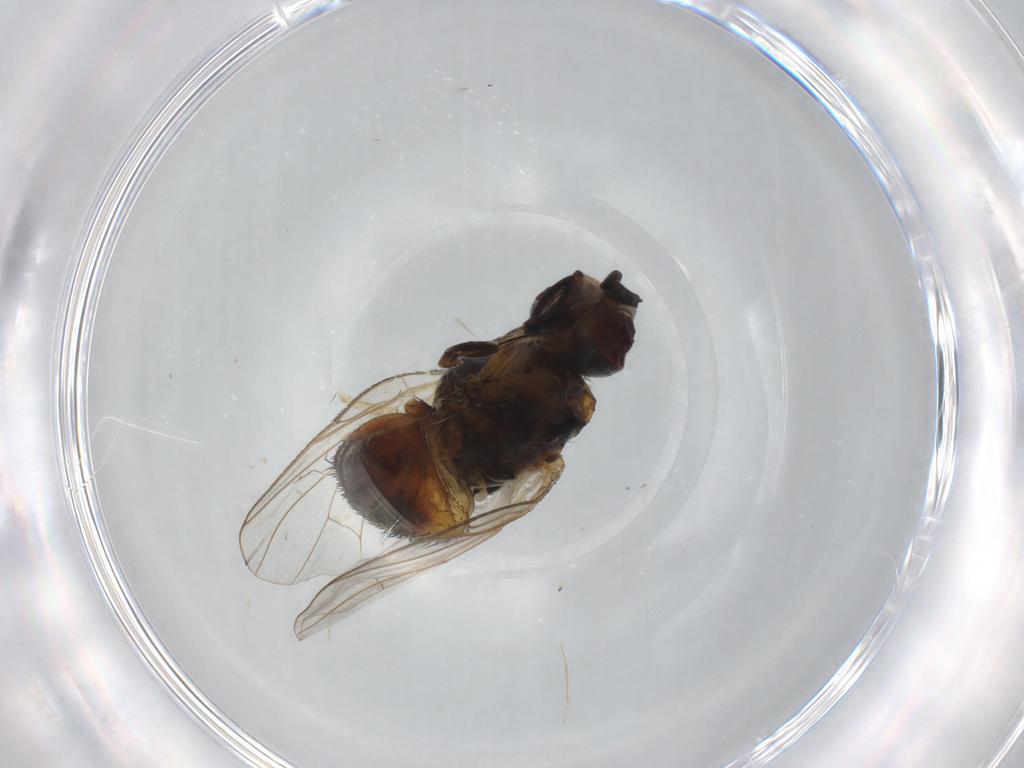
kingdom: Animalia
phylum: Arthropoda
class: Insecta
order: Diptera
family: Muscidae
